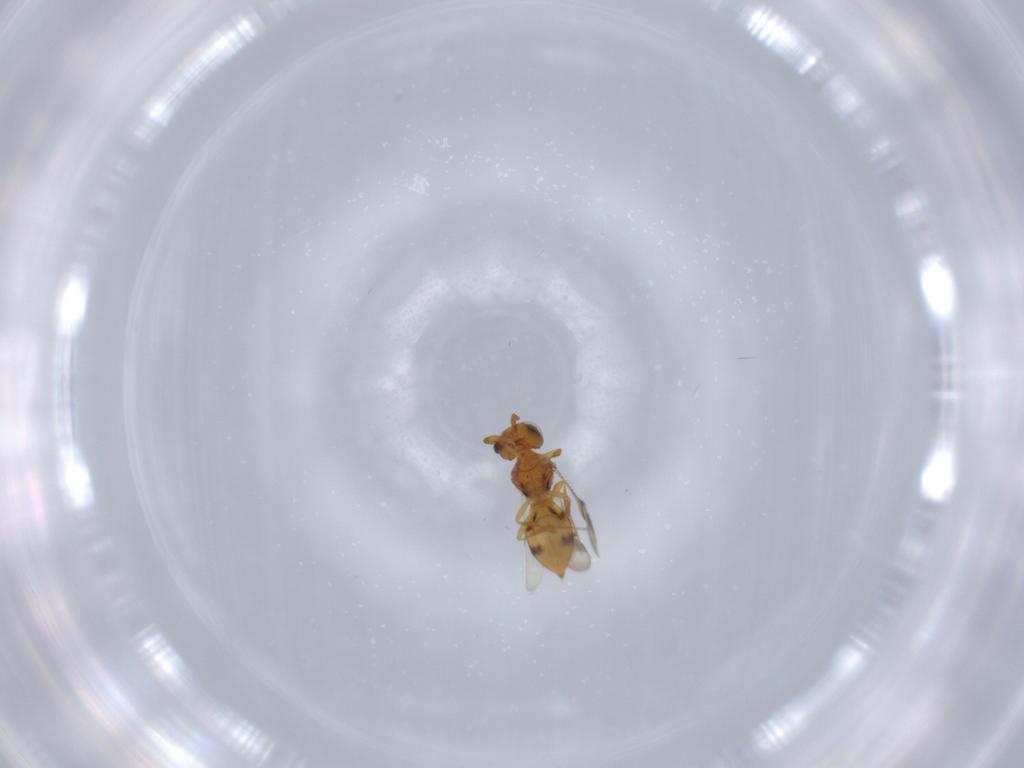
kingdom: Animalia
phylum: Arthropoda
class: Insecta
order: Hymenoptera
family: Scelionidae
